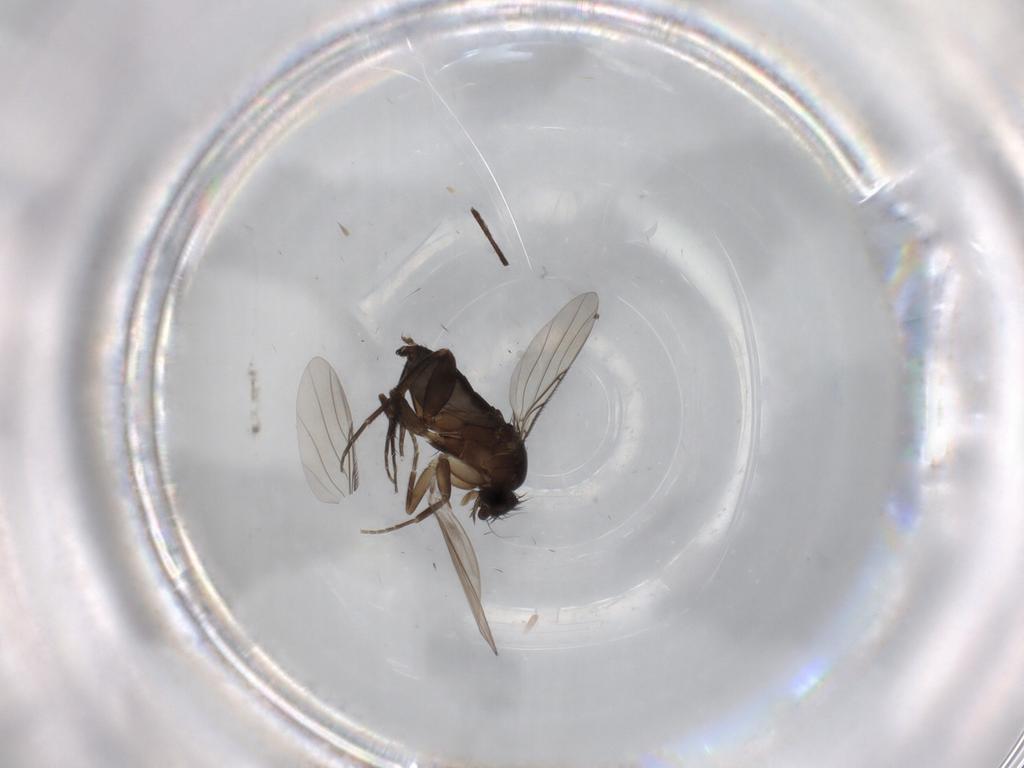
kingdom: Animalia
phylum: Arthropoda
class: Insecta
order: Diptera
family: Phoridae
